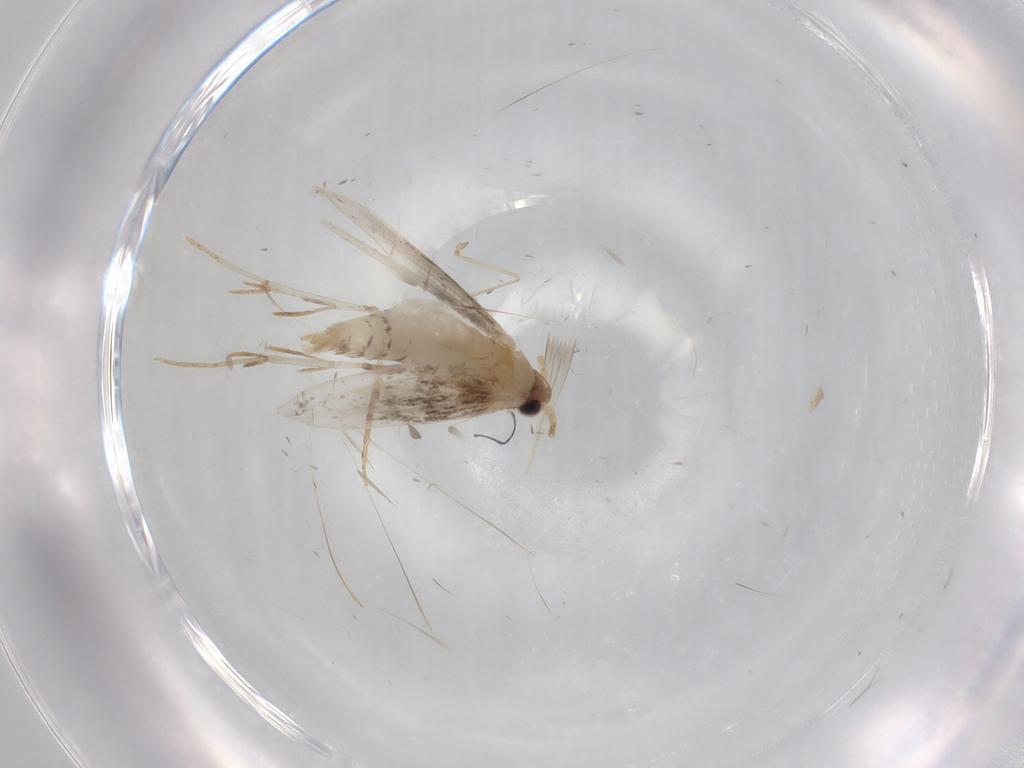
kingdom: Animalia
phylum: Arthropoda
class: Insecta
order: Lepidoptera
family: Tineidae
